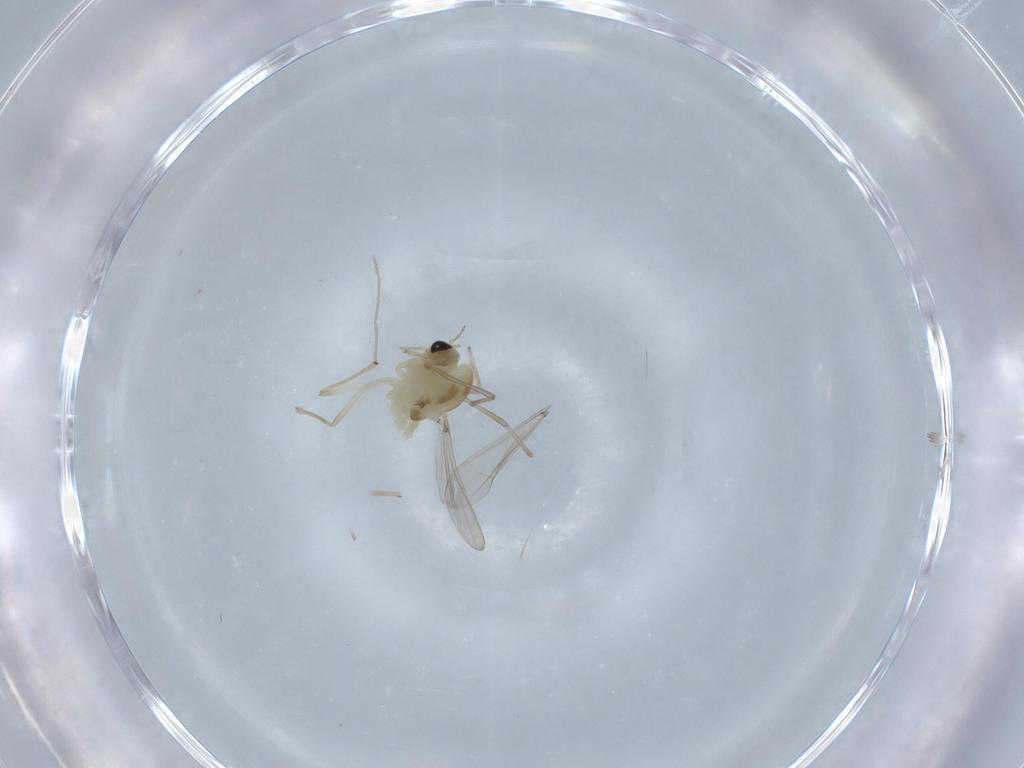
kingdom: Animalia
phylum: Arthropoda
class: Insecta
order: Diptera
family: Chironomidae
